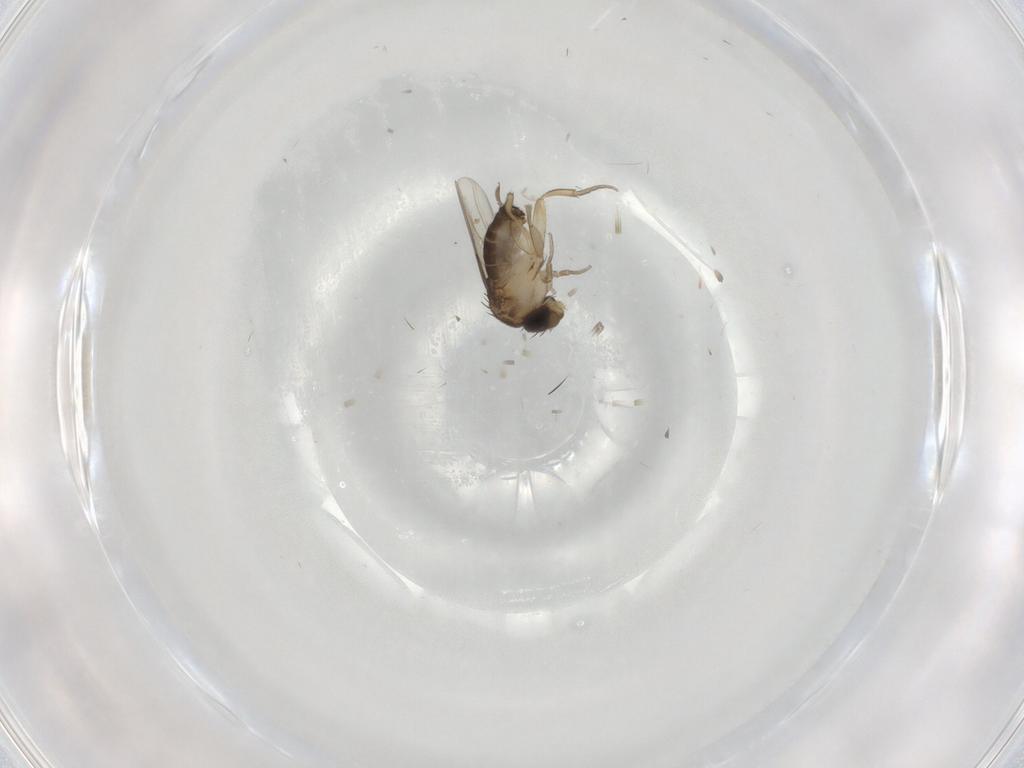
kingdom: Animalia
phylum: Arthropoda
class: Insecta
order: Diptera
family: Cecidomyiidae
